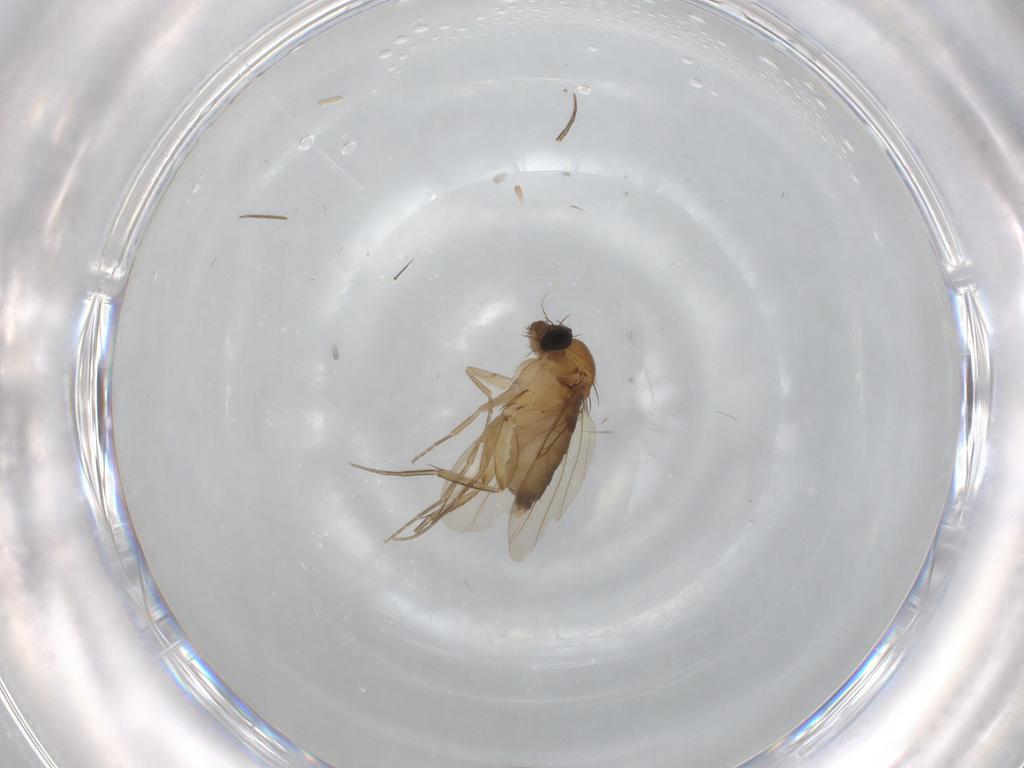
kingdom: Animalia
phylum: Arthropoda
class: Insecta
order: Diptera
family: Phoridae
